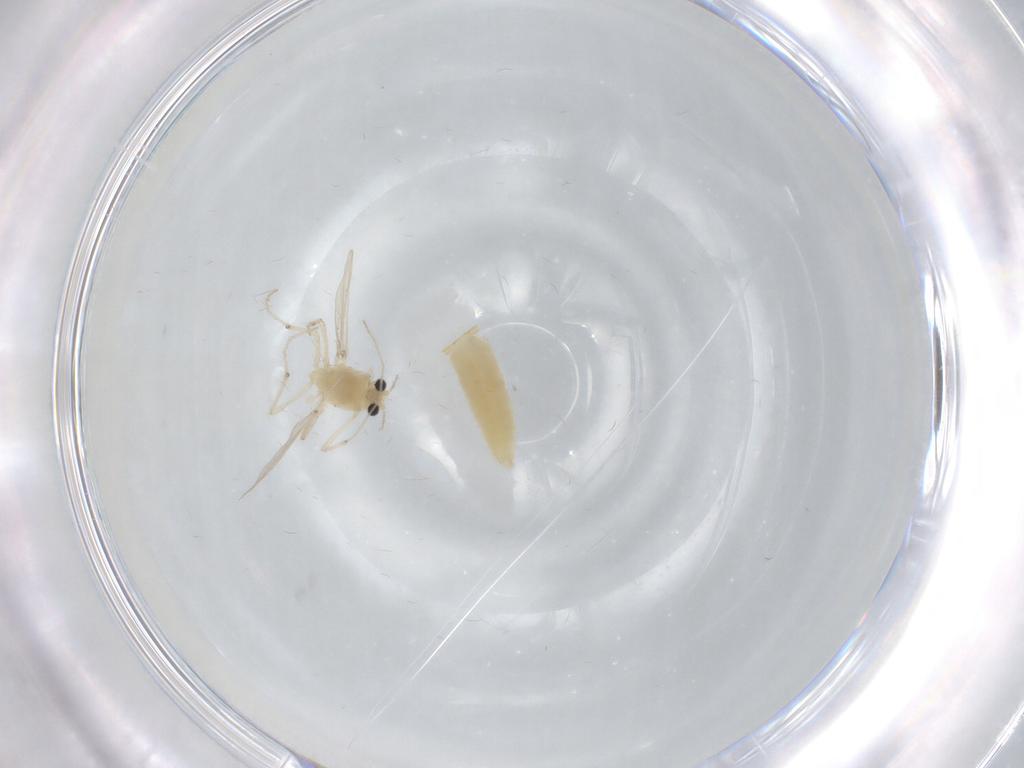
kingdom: Animalia
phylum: Arthropoda
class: Insecta
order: Diptera
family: Chironomidae
